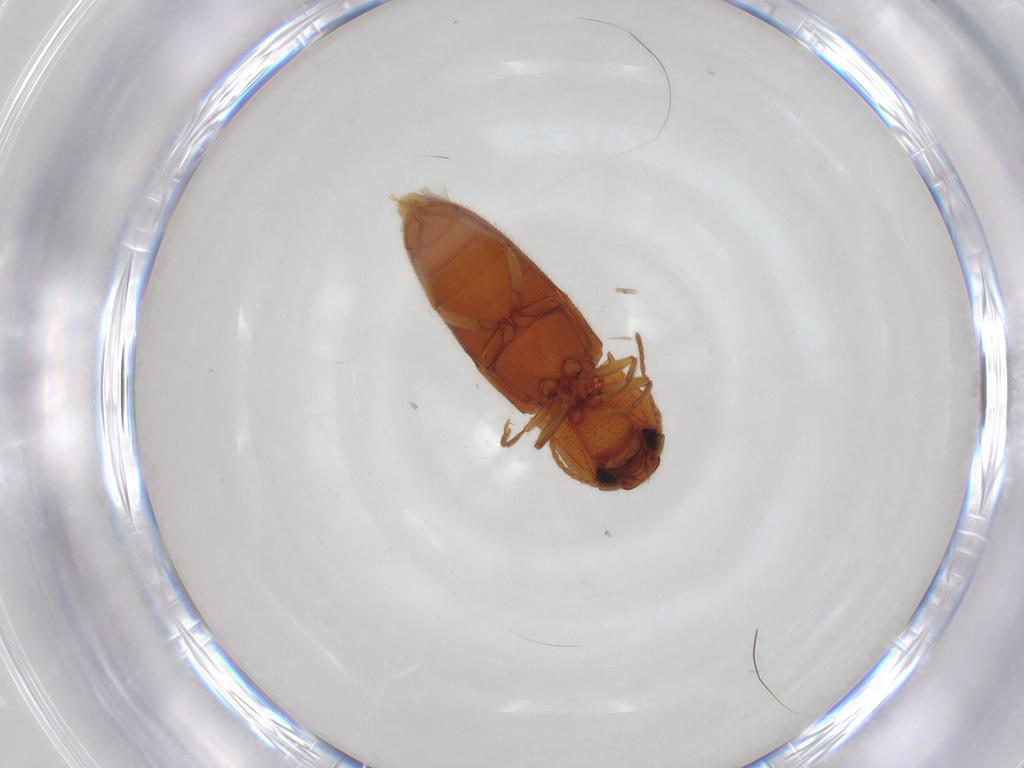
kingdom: Animalia
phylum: Arthropoda
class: Insecta
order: Coleoptera
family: Elateridae
